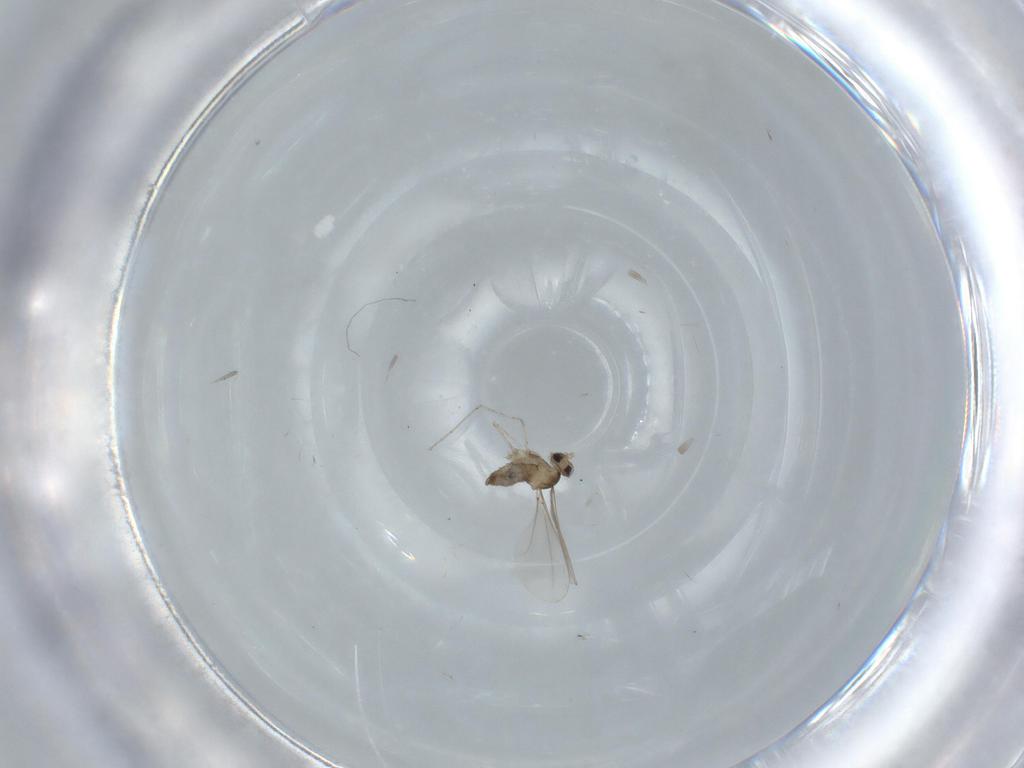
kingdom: Animalia
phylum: Arthropoda
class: Insecta
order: Diptera
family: Cecidomyiidae
